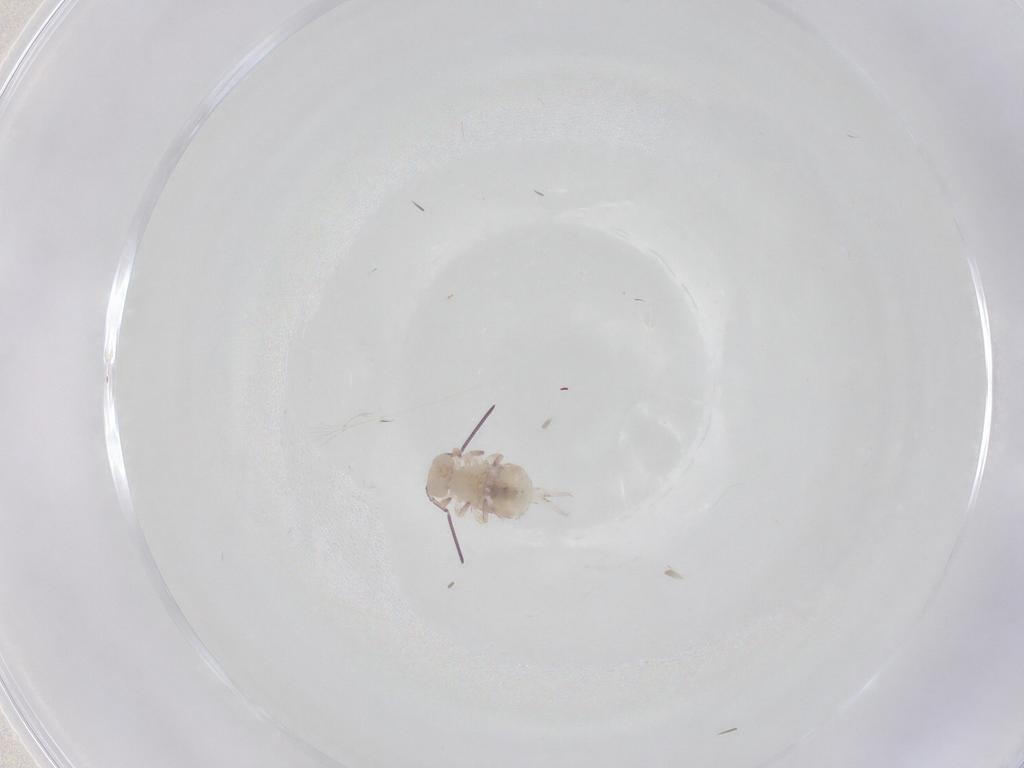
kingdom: Animalia
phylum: Arthropoda
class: Collembola
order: Symphypleona
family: Sminthuridae
